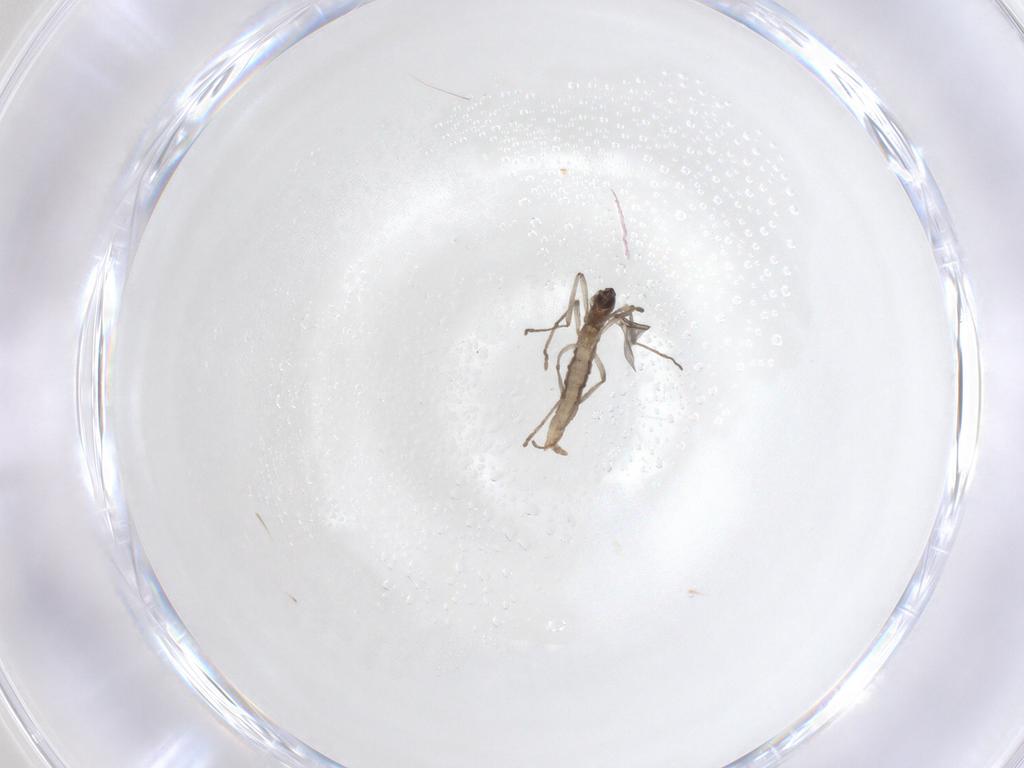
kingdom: Animalia
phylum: Arthropoda
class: Insecta
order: Diptera
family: Cecidomyiidae
